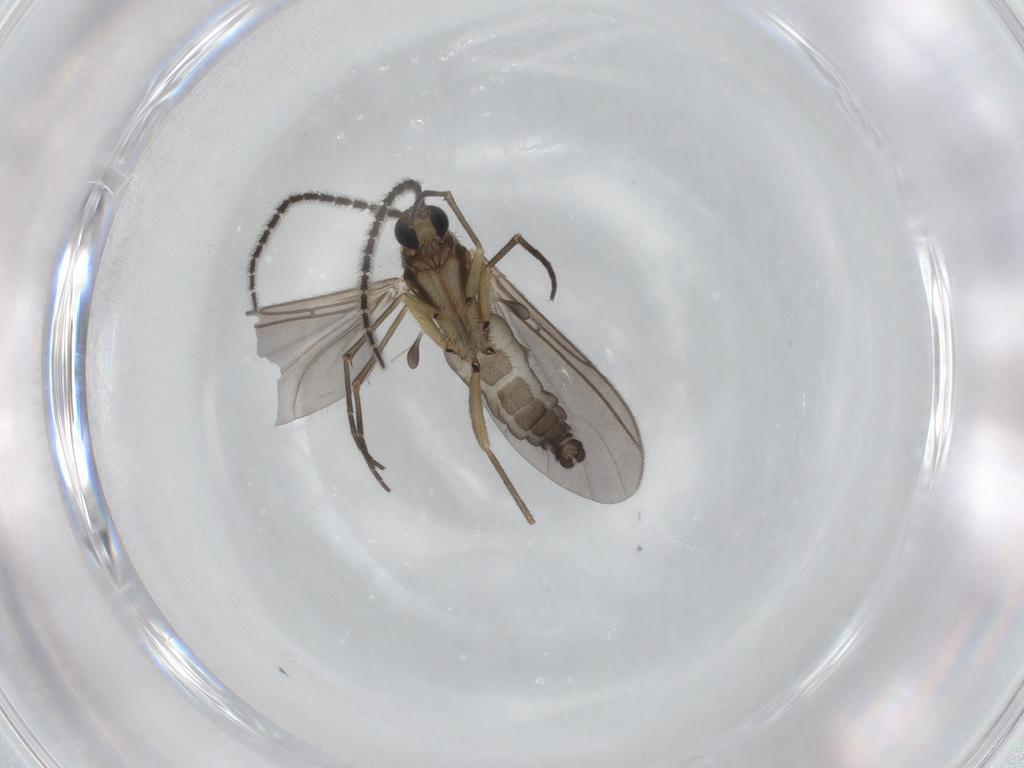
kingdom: Animalia
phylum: Arthropoda
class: Insecta
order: Diptera
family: Sciaridae
